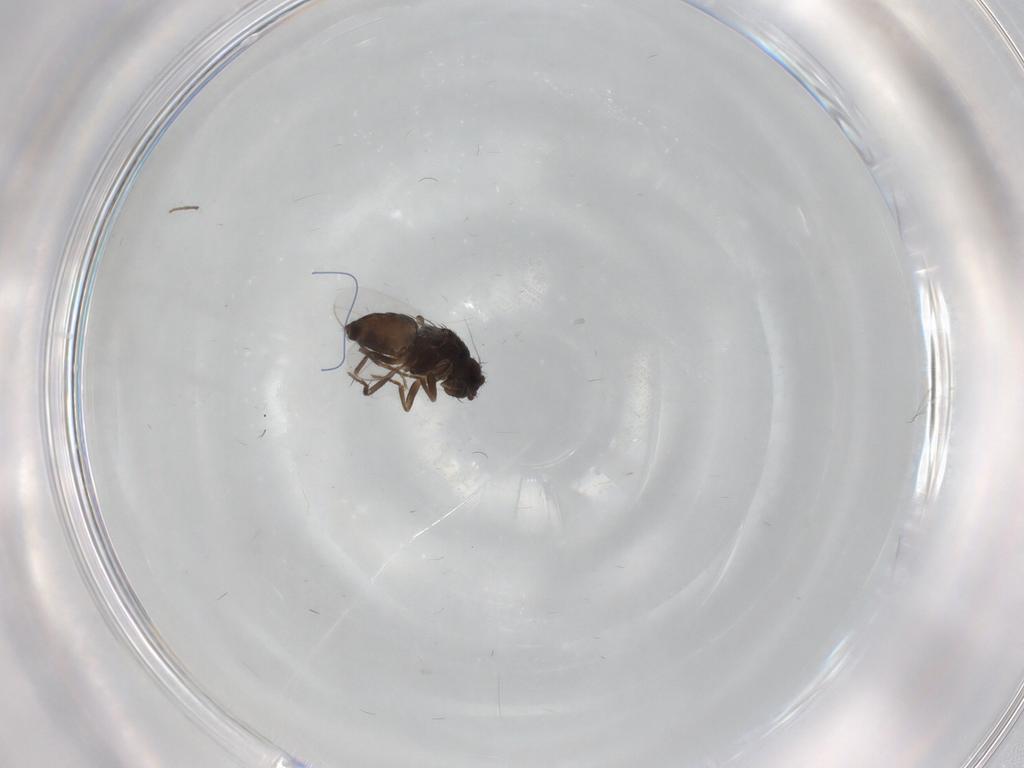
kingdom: Animalia
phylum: Arthropoda
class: Insecta
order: Diptera
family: Sphaeroceridae
